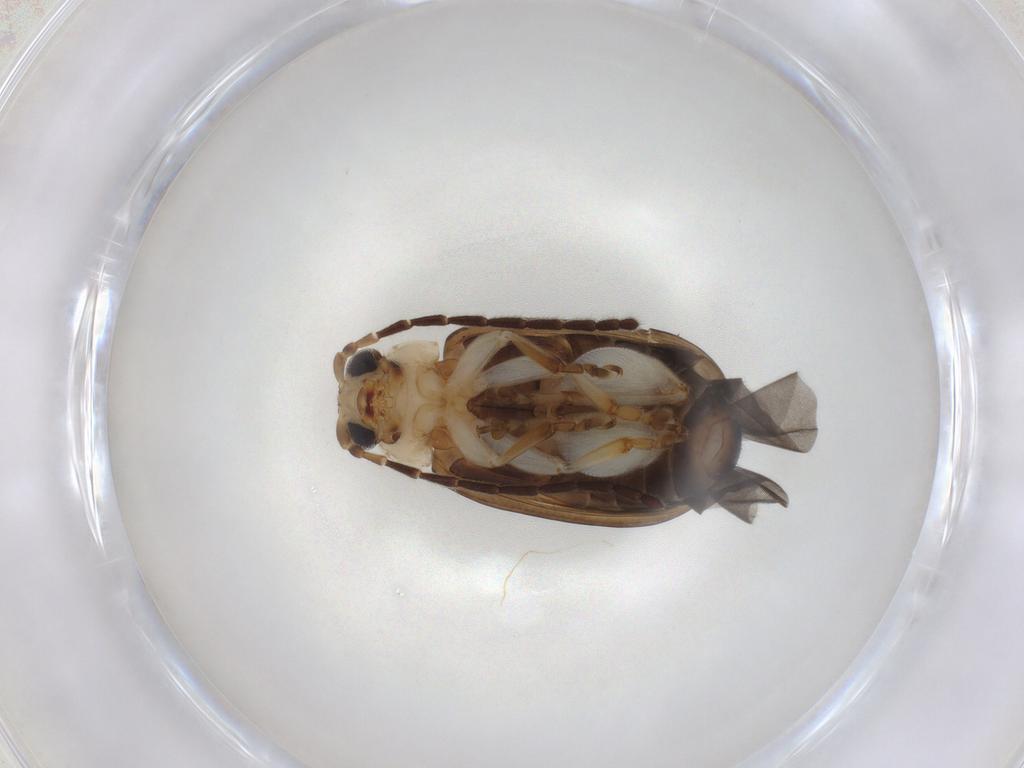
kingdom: Animalia
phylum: Arthropoda
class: Insecta
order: Coleoptera
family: Chrysomelidae
